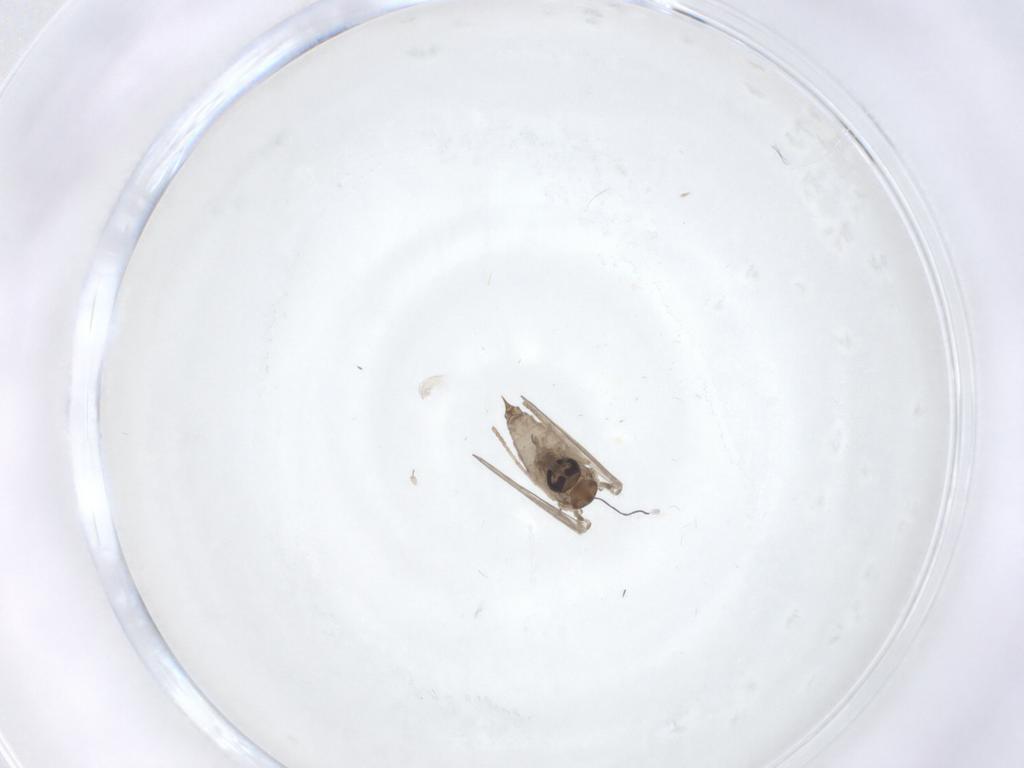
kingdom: Animalia
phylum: Arthropoda
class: Insecta
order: Diptera
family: Psychodidae
